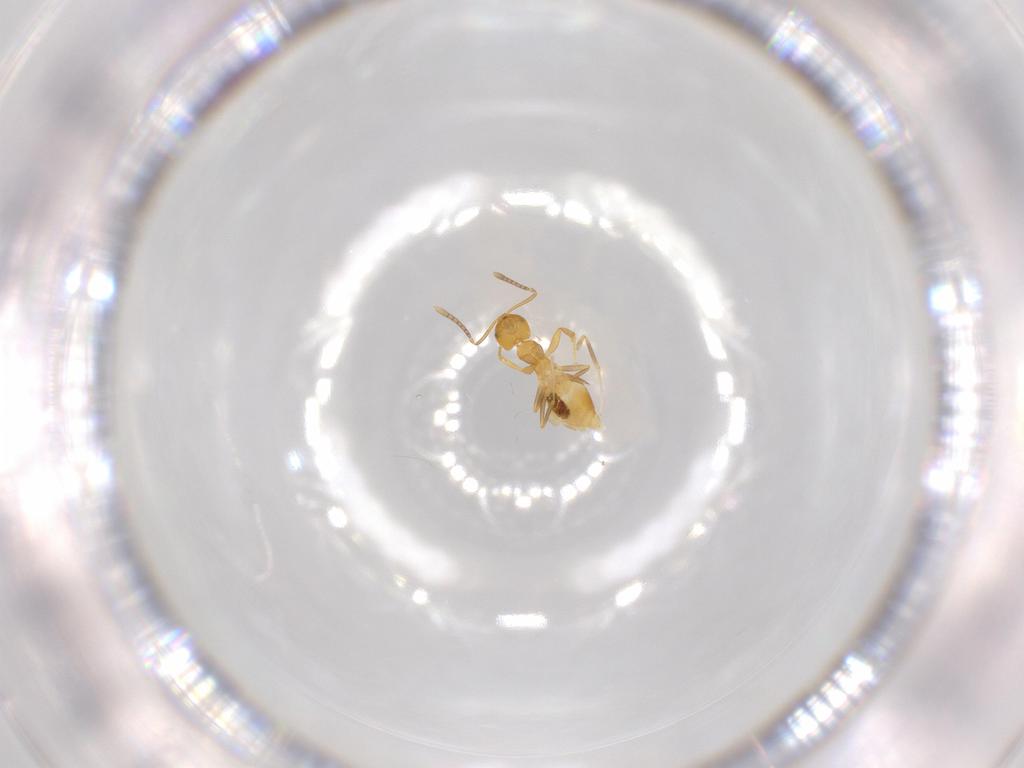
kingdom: Animalia
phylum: Arthropoda
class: Insecta
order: Hymenoptera
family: Formicidae
